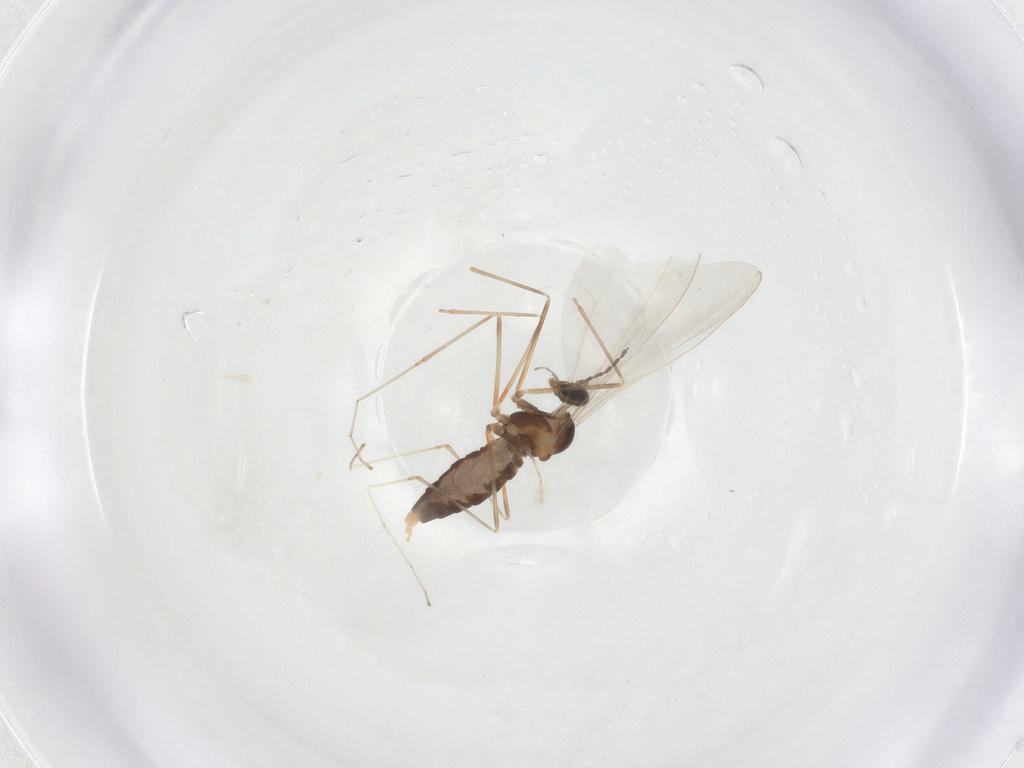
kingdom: Animalia
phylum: Arthropoda
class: Insecta
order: Diptera
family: Cecidomyiidae
